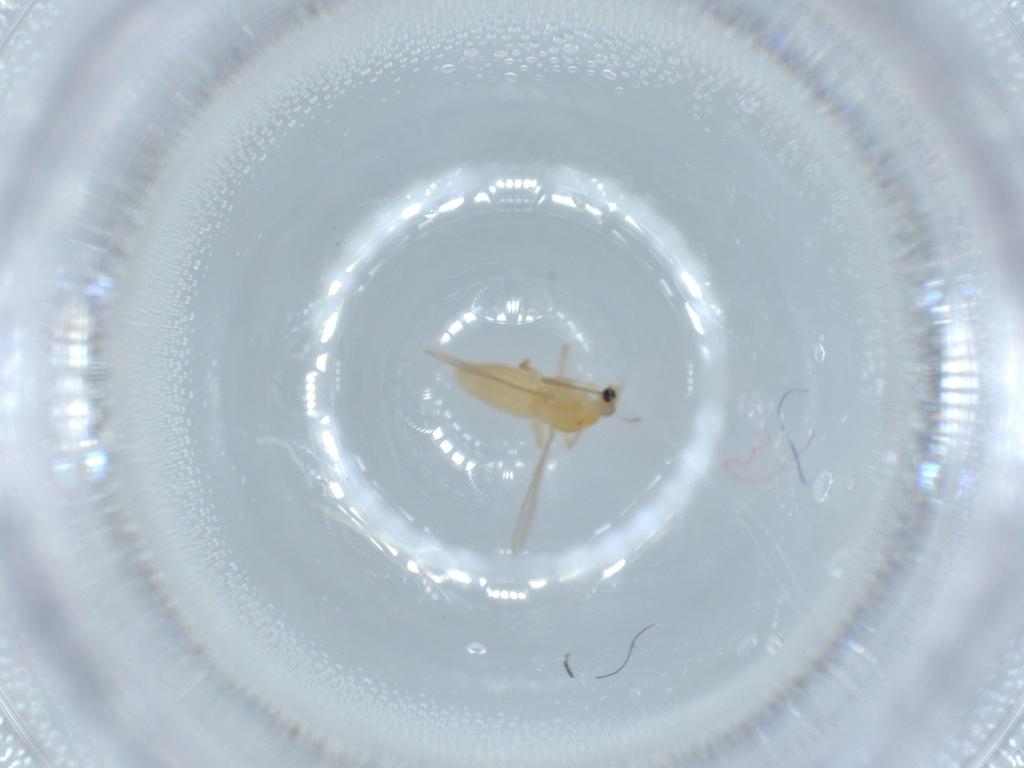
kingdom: Animalia
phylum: Arthropoda
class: Insecta
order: Diptera
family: Chironomidae
